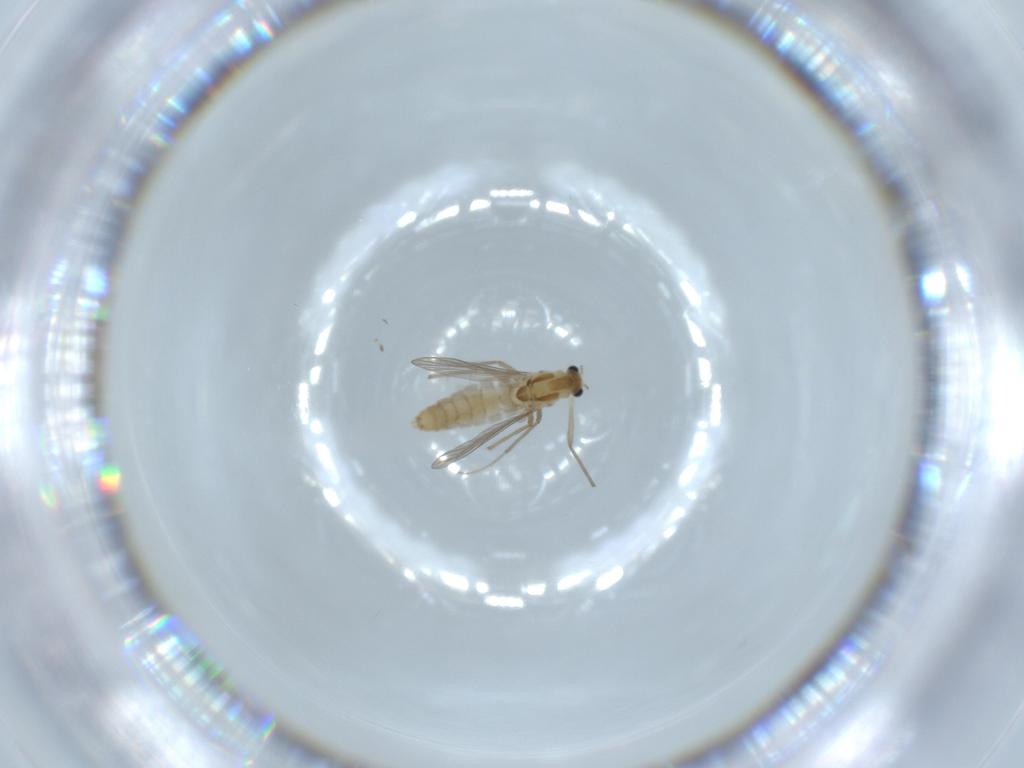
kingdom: Animalia
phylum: Arthropoda
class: Insecta
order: Diptera
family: Chironomidae
